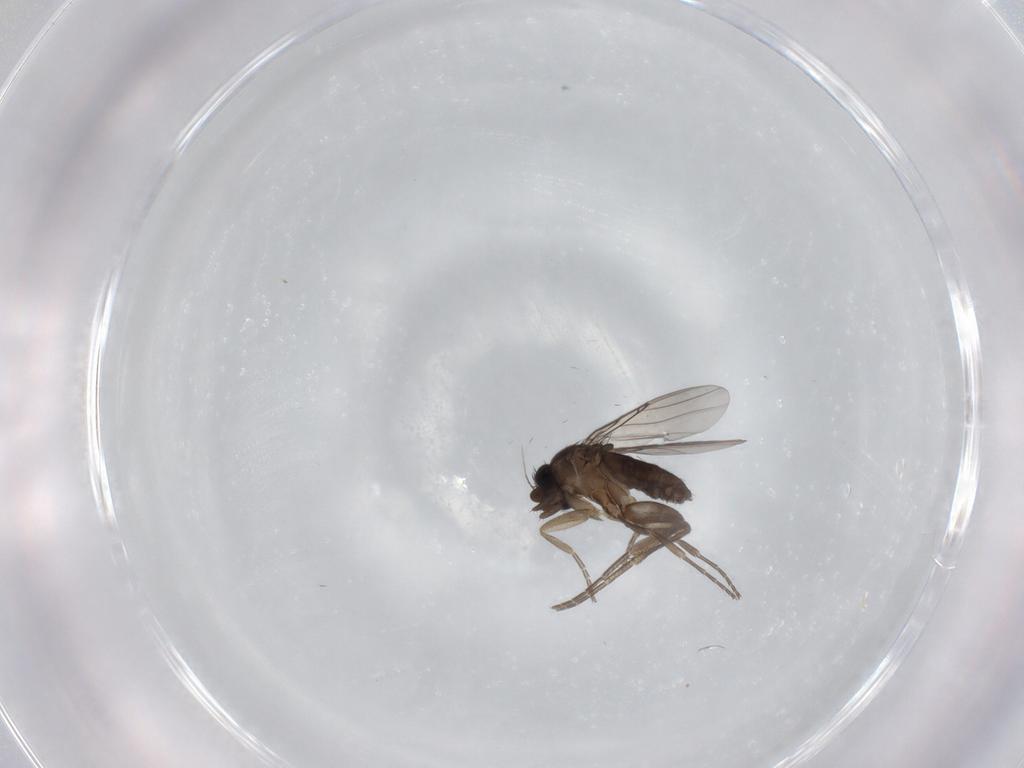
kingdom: Animalia
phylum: Arthropoda
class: Insecta
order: Diptera
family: Phoridae
